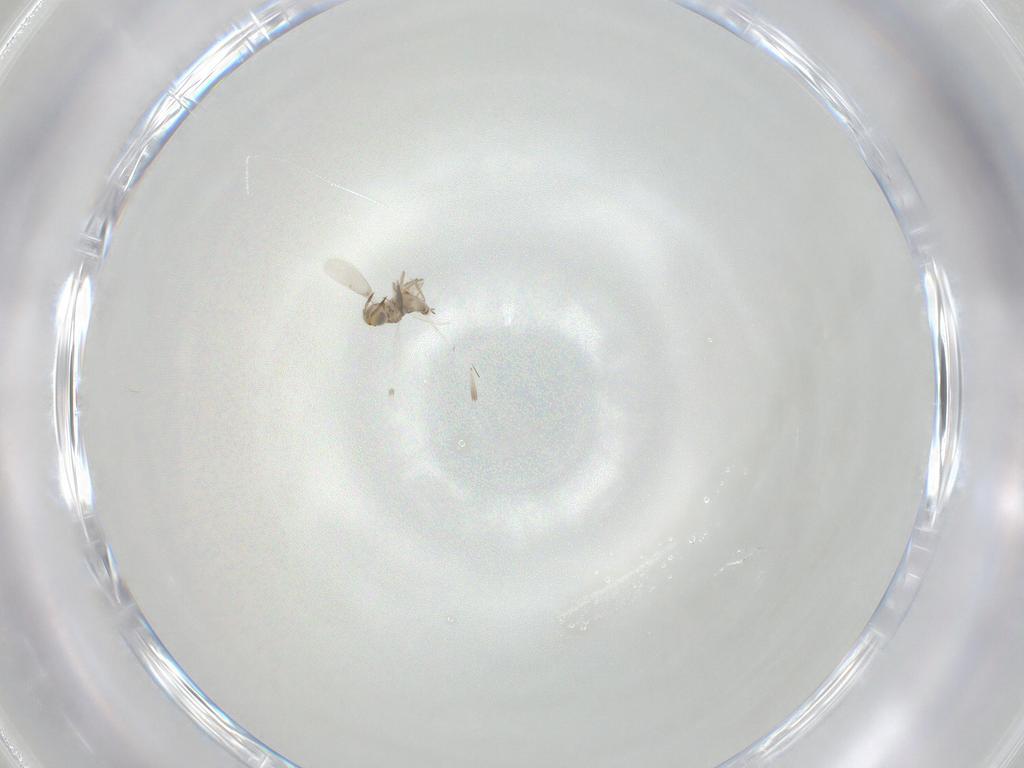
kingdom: Animalia
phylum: Arthropoda
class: Insecta
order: Hymenoptera
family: Aphelinidae
